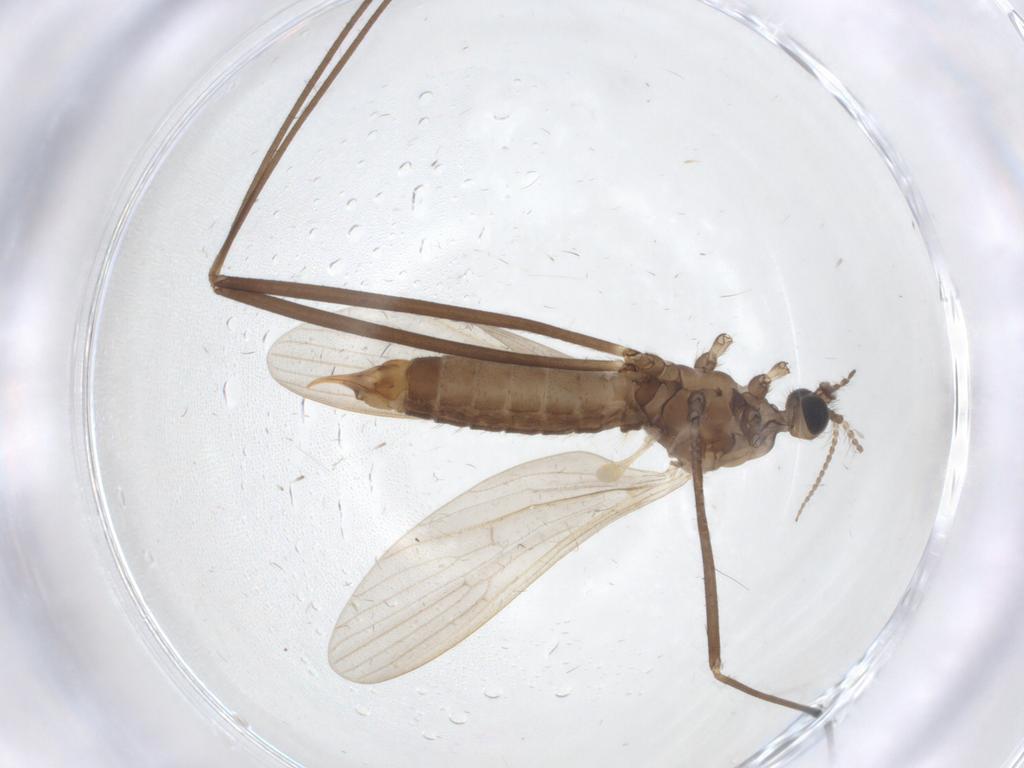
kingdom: Animalia
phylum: Arthropoda
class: Insecta
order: Diptera
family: Limoniidae
